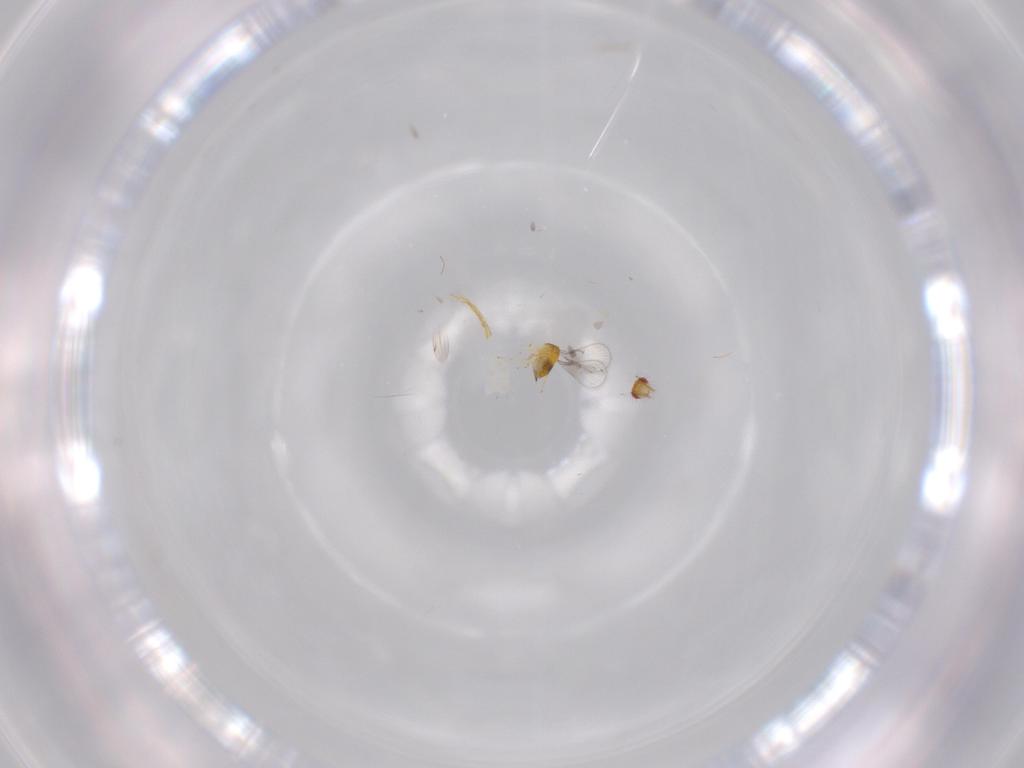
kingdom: Animalia
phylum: Arthropoda
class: Insecta
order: Hymenoptera
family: Trichogrammatidae
